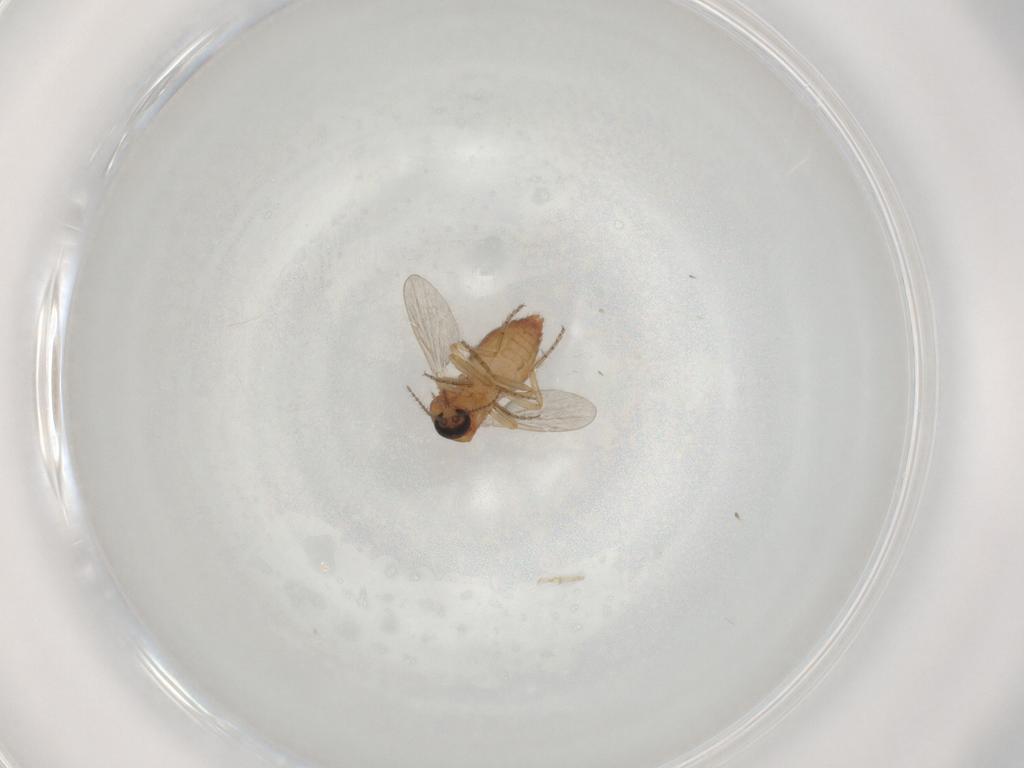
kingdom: Animalia
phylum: Arthropoda
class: Insecta
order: Diptera
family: Ceratopogonidae
